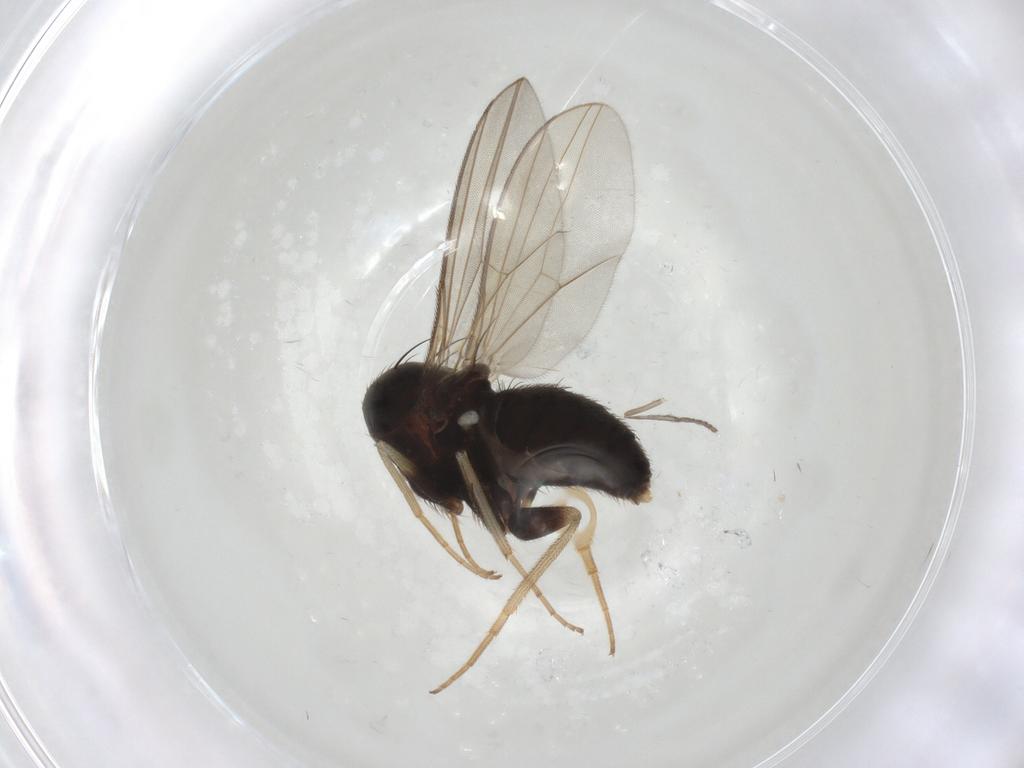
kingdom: Animalia
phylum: Arthropoda
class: Insecta
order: Diptera
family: Dolichopodidae
